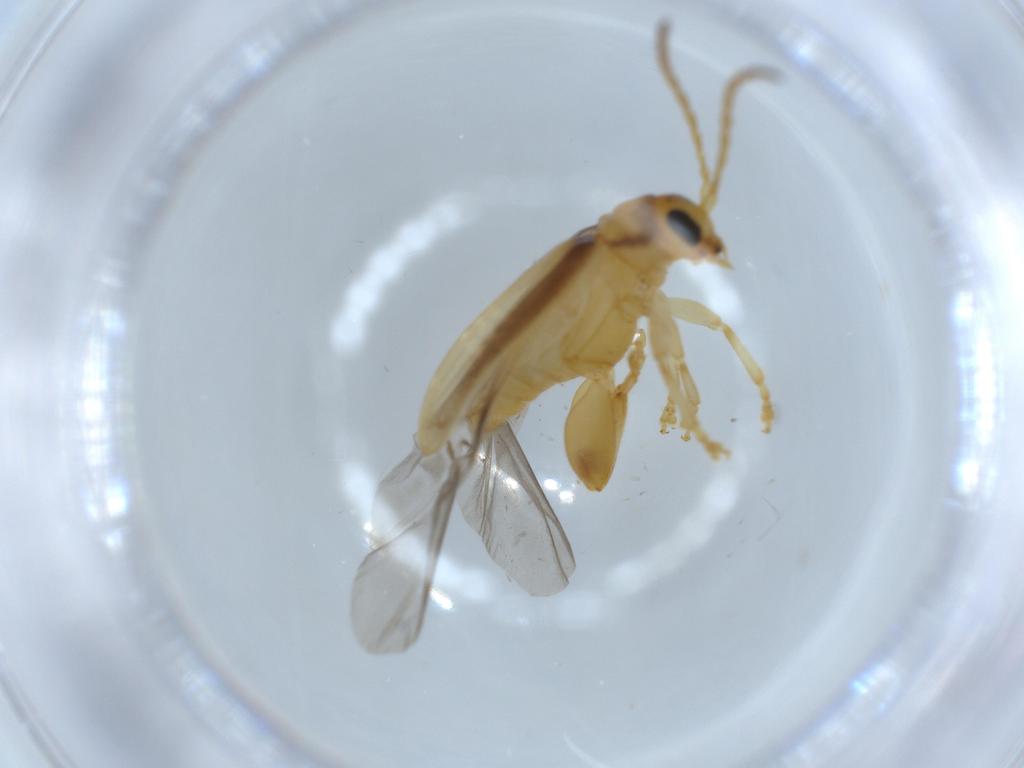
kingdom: Animalia
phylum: Arthropoda
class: Insecta
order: Coleoptera
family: Chrysomelidae
